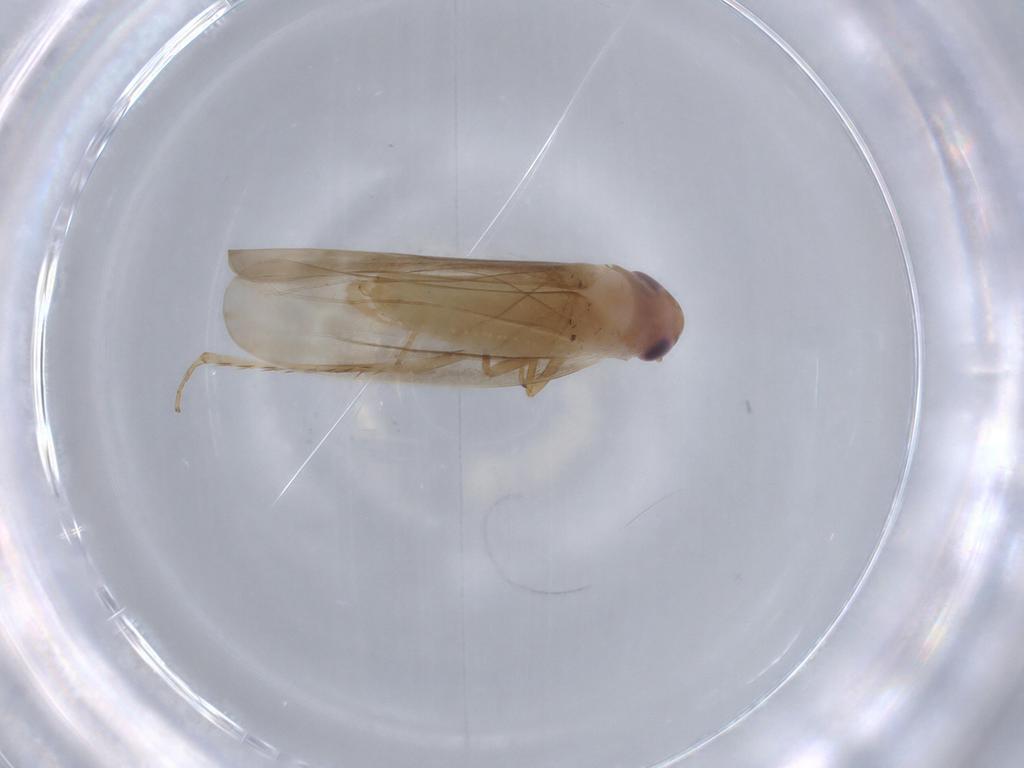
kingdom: Animalia
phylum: Arthropoda
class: Insecta
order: Hemiptera
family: Cicadellidae
